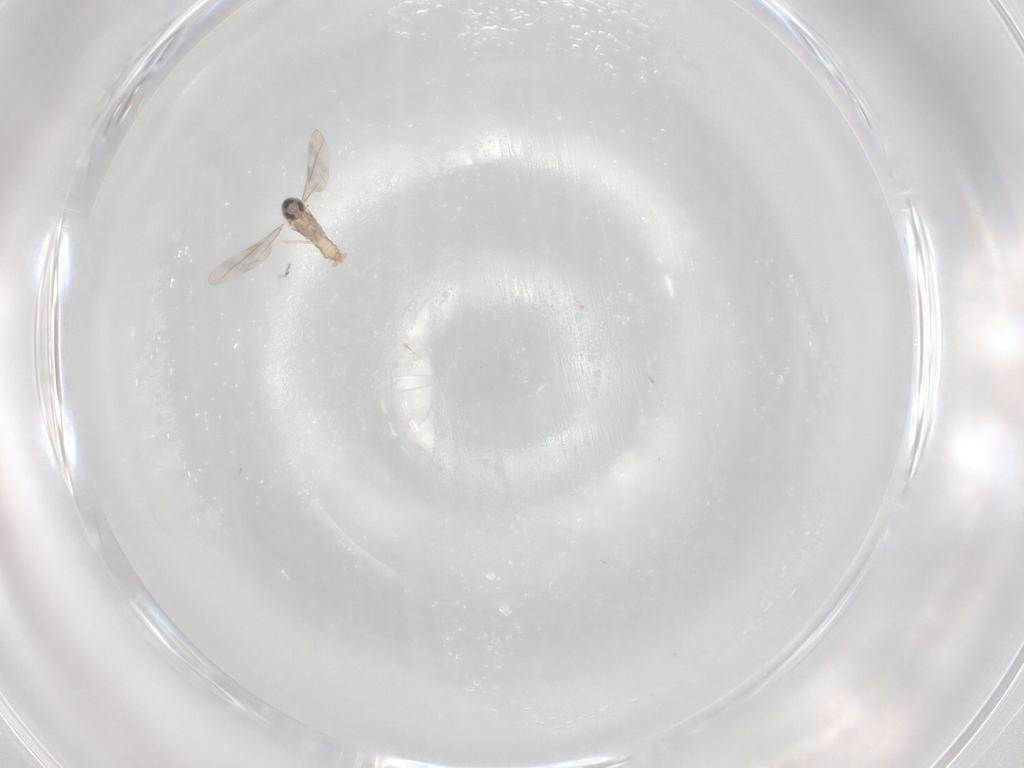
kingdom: Animalia
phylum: Arthropoda
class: Insecta
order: Diptera
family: Cecidomyiidae
